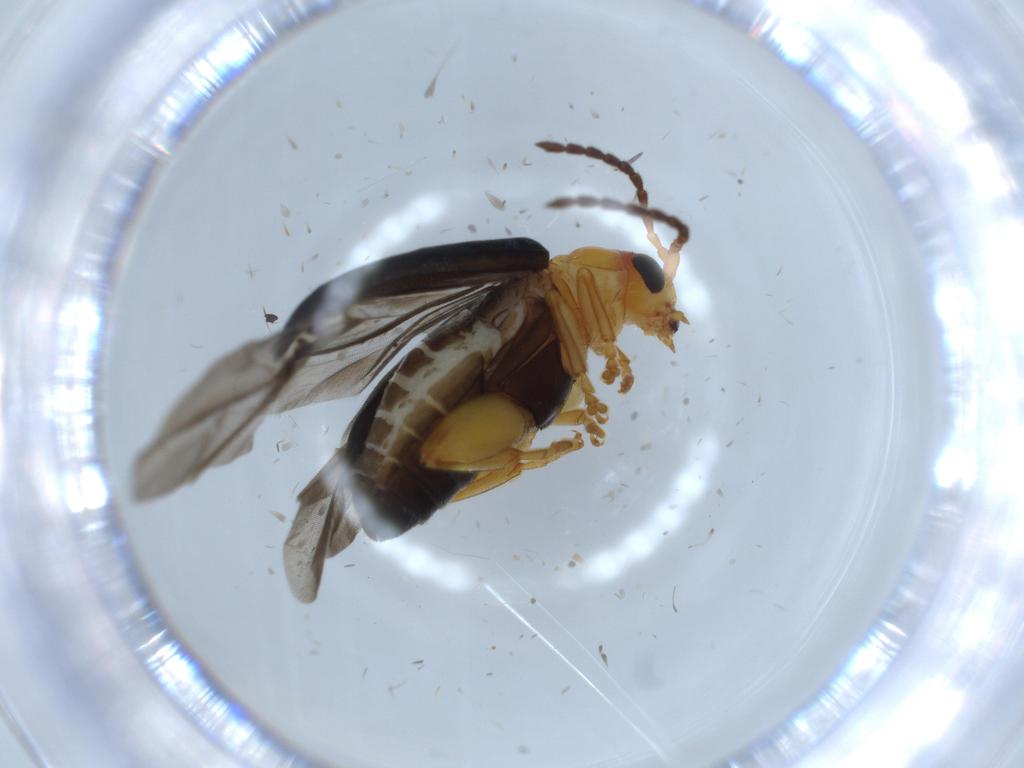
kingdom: Animalia
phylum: Arthropoda
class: Insecta
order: Coleoptera
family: Chrysomelidae
